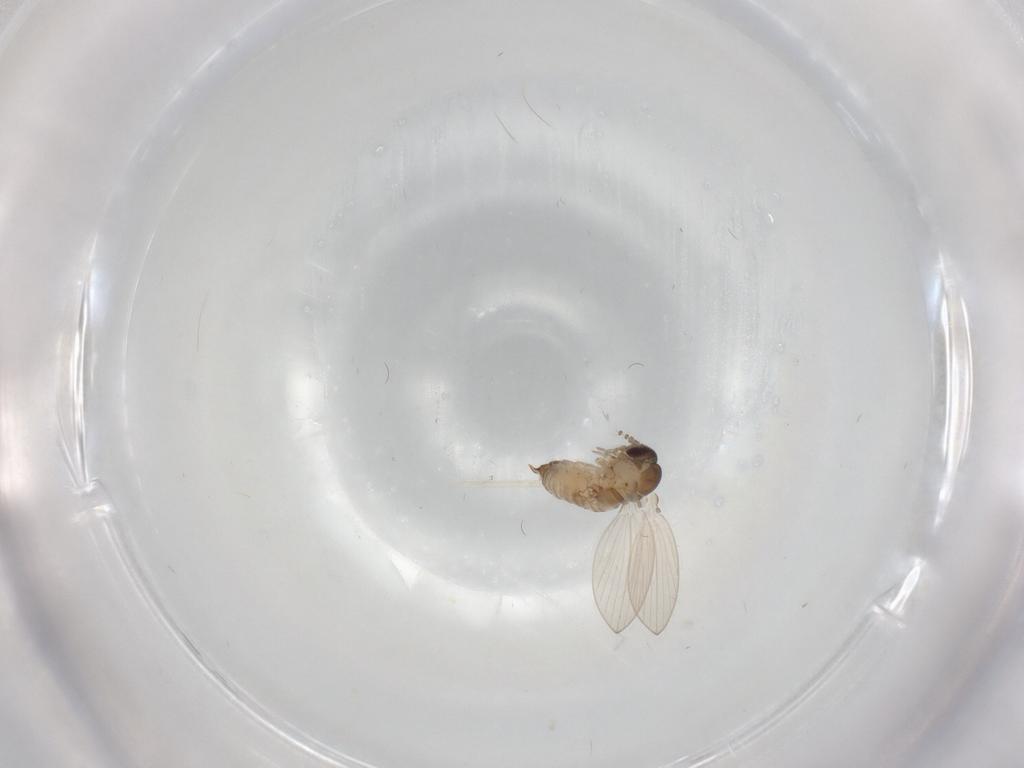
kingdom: Animalia
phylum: Arthropoda
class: Insecta
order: Diptera
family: Psychodidae
